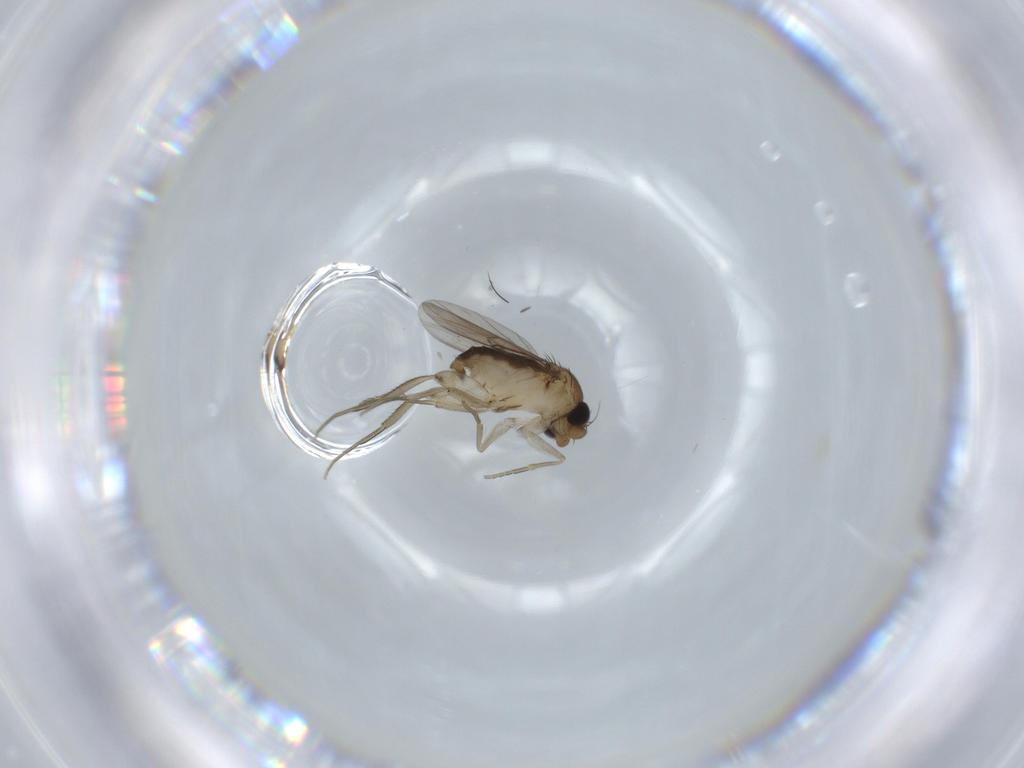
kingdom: Animalia
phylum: Arthropoda
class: Insecta
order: Diptera
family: Phoridae
